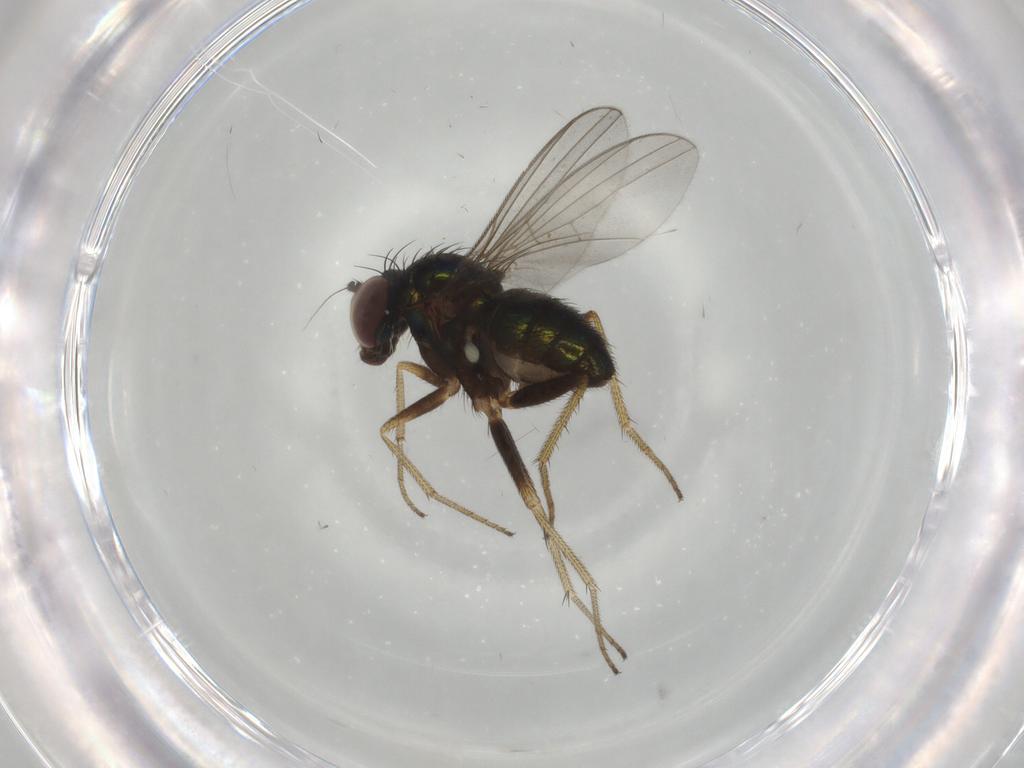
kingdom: Animalia
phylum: Arthropoda
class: Insecta
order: Diptera
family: Dolichopodidae
